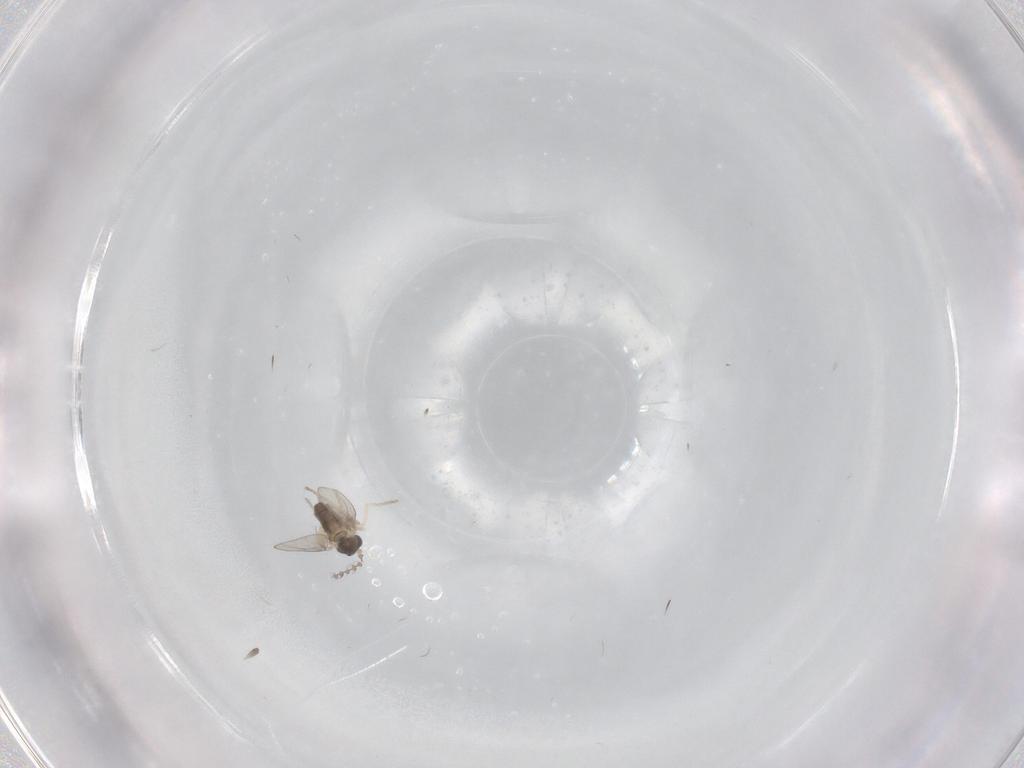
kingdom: Animalia
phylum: Arthropoda
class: Insecta
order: Diptera
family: Cecidomyiidae
